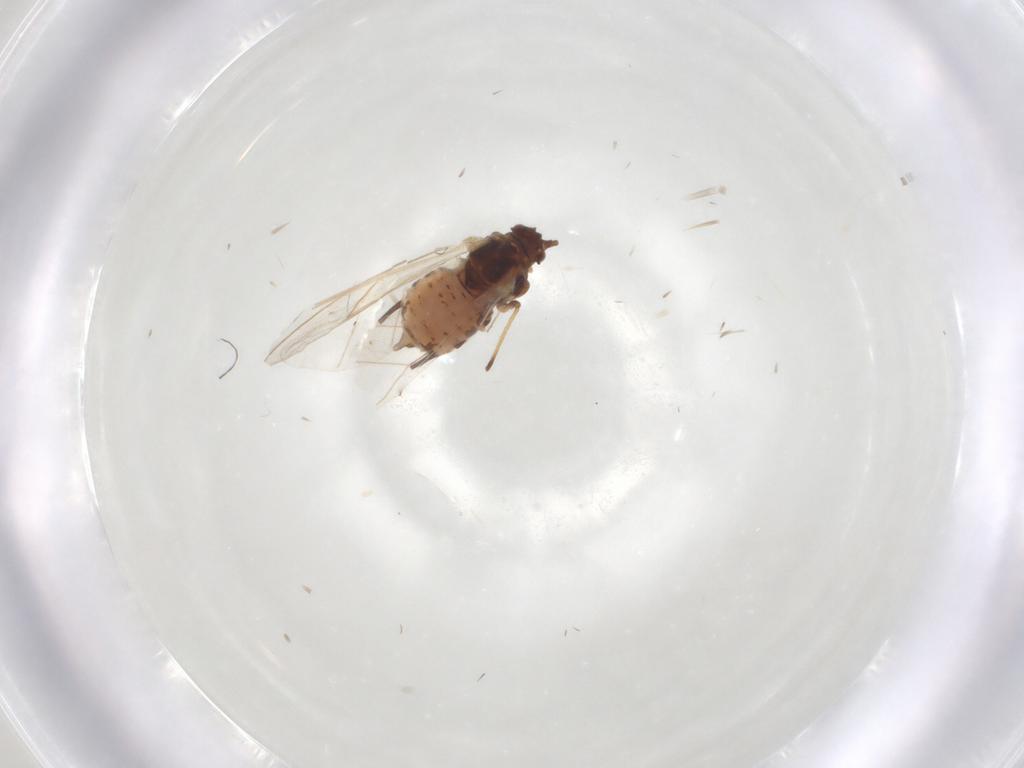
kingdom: Animalia
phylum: Arthropoda
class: Insecta
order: Hemiptera
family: Aphididae
